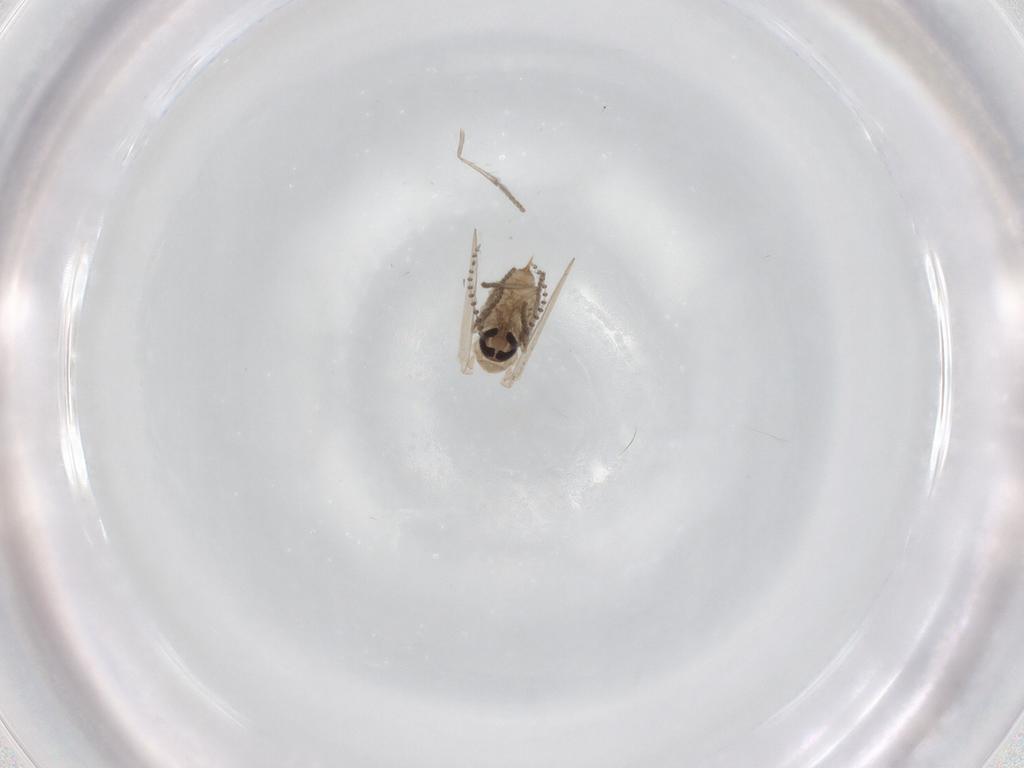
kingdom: Animalia
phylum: Arthropoda
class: Insecta
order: Diptera
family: Psychodidae
